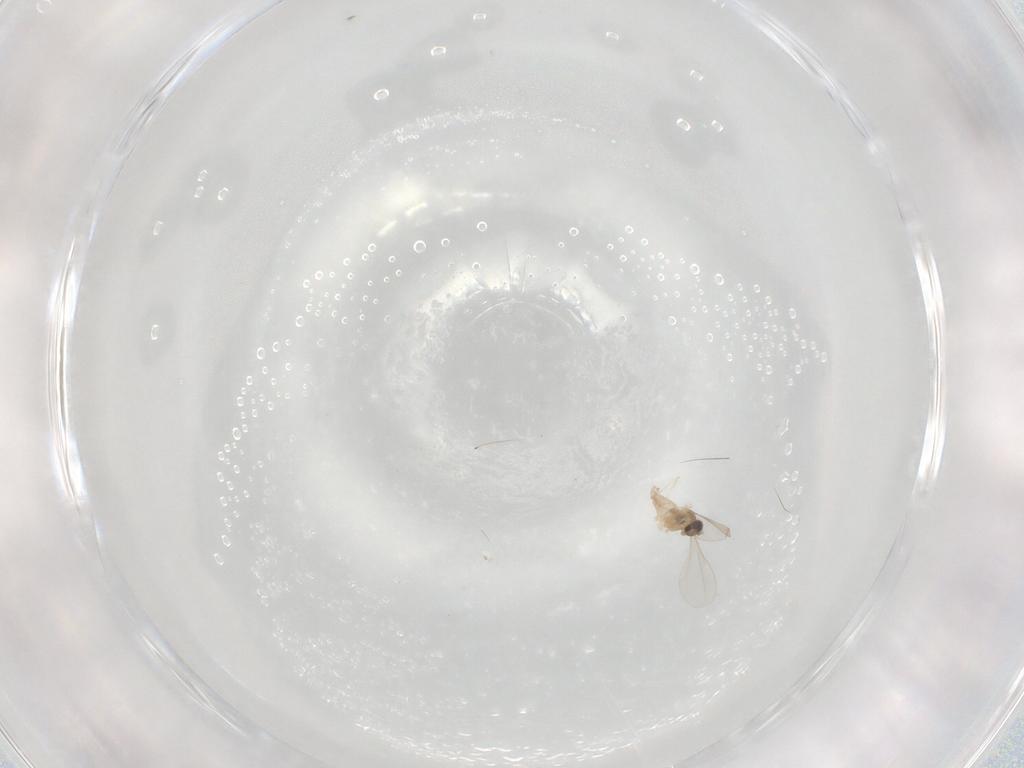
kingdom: Animalia
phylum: Arthropoda
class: Insecta
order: Diptera
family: Cecidomyiidae
